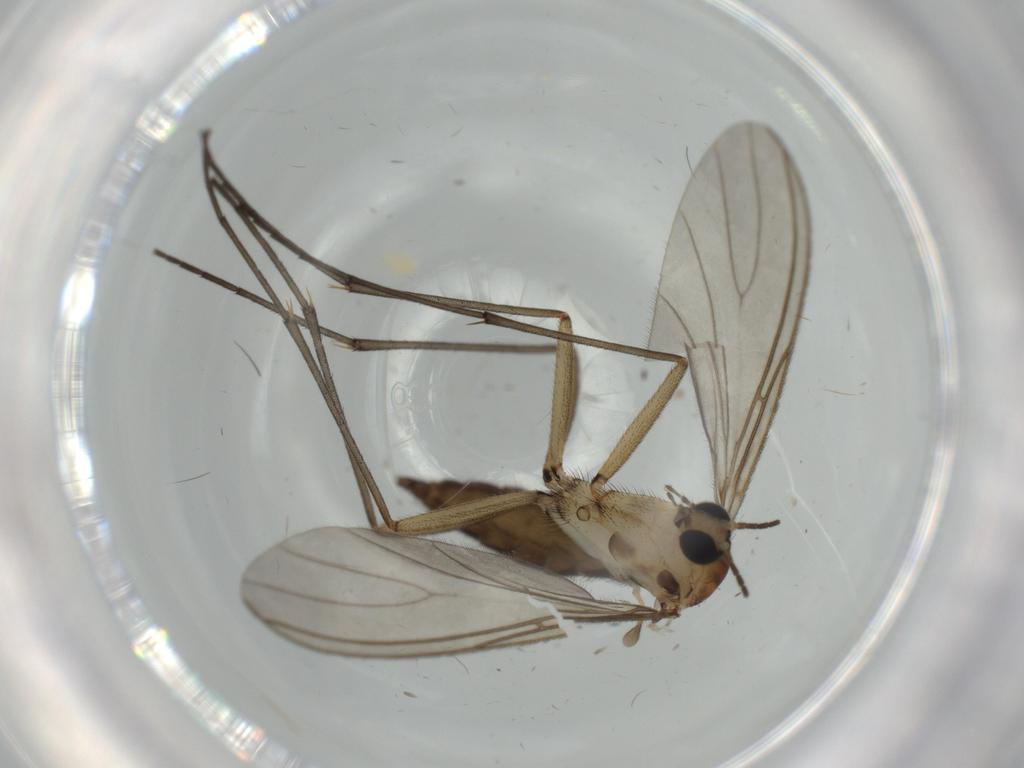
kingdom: Animalia
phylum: Arthropoda
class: Insecta
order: Diptera
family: Sciaridae
